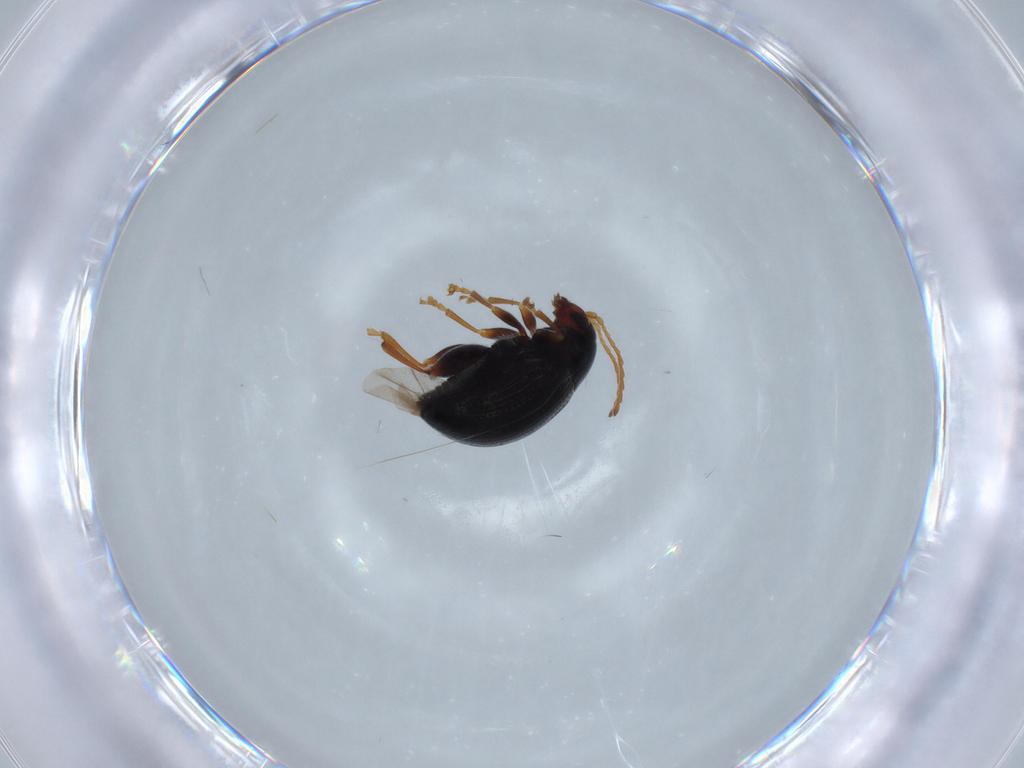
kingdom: Animalia
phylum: Arthropoda
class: Insecta
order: Coleoptera
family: Chrysomelidae
